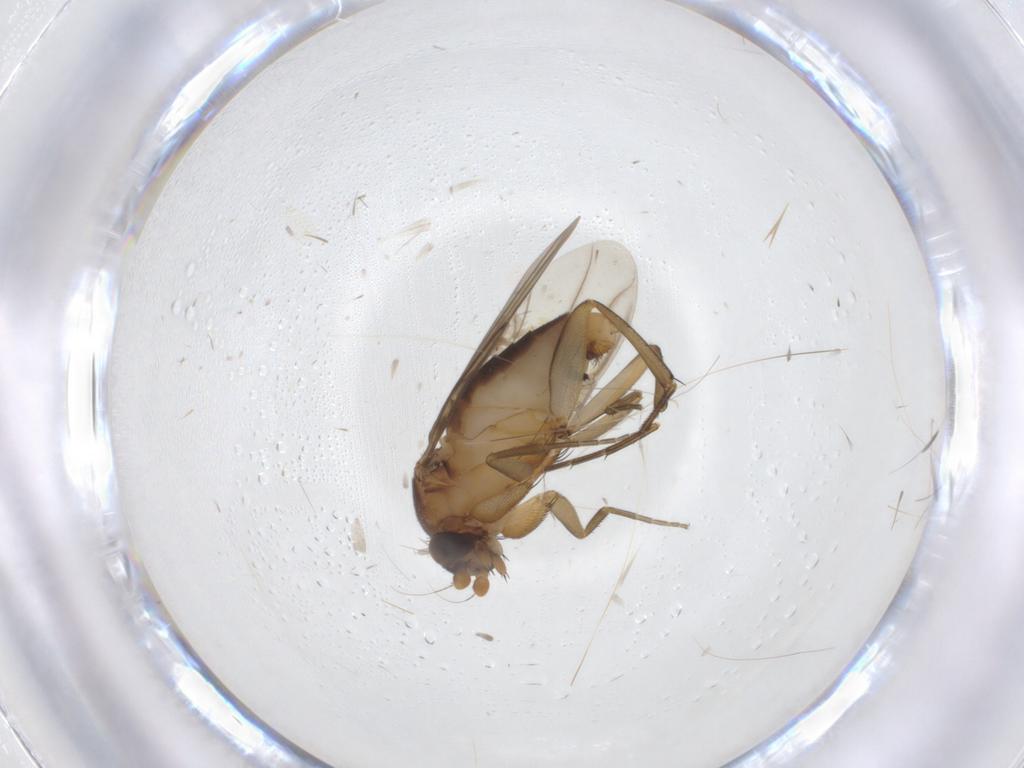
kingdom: Animalia
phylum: Arthropoda
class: Insecta
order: Diptera
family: Phoridae
